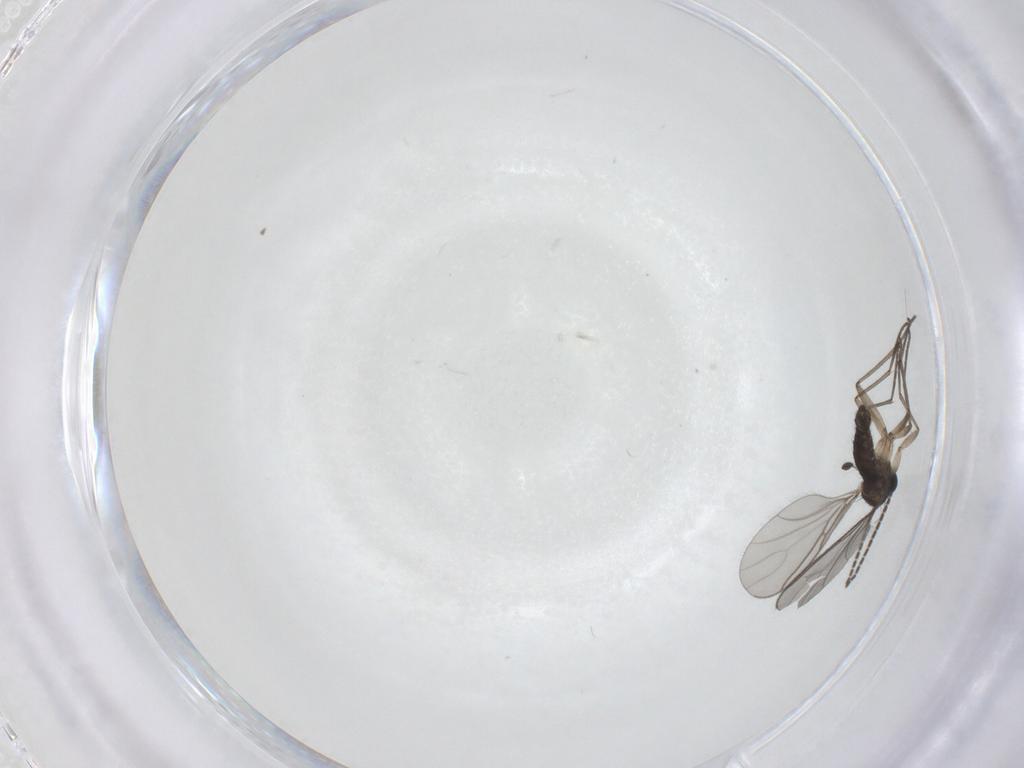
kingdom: Animalia
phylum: Arthropoda
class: Insecta
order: Diptera
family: Sciaridae
